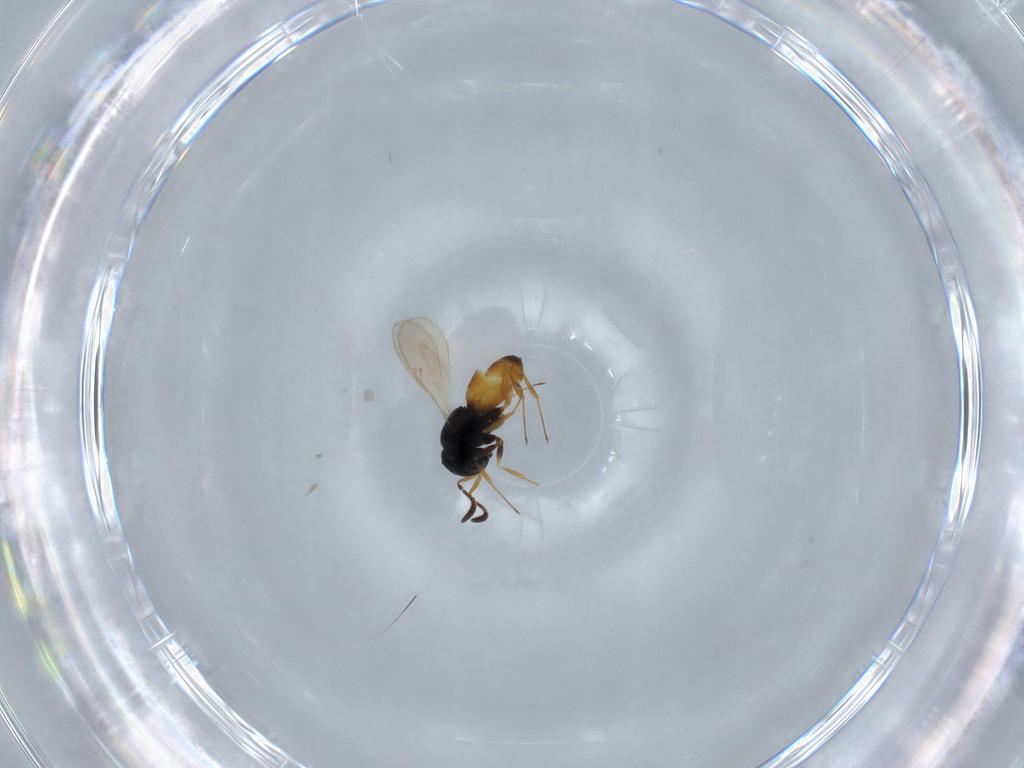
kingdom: Animalia
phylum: Arthropoda
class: Insecta
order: Hymenoptera
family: Scelionidae
